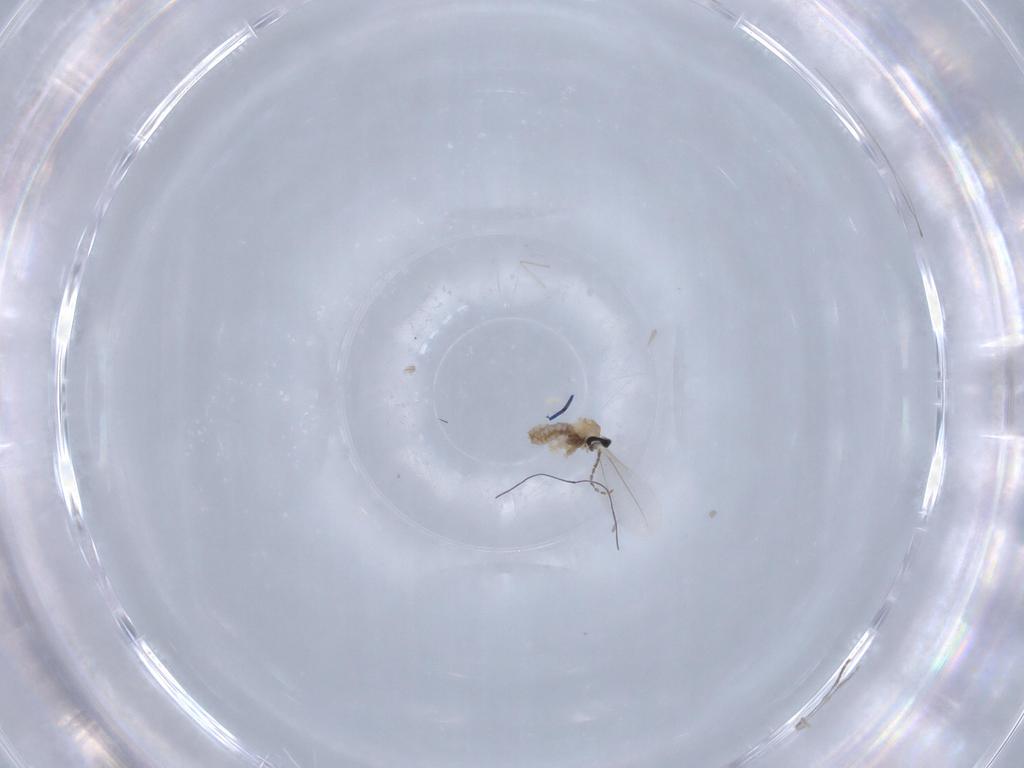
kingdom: Animalia
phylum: Arthropoda
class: Insecta
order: Diptera
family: Cecidomyiidae
